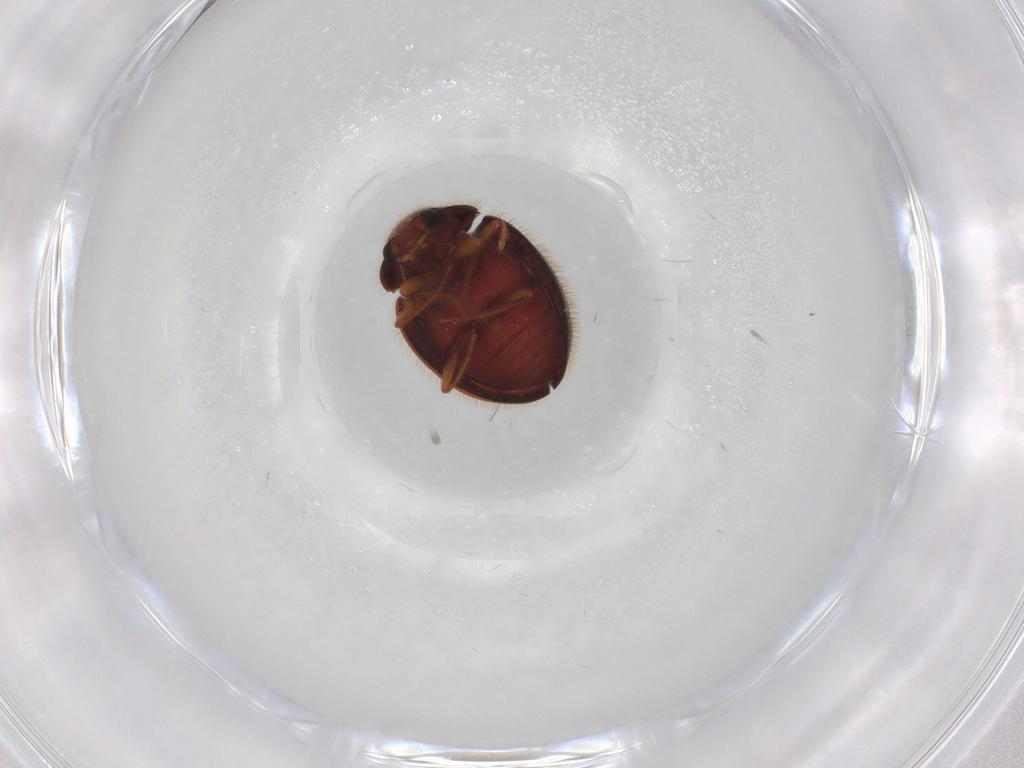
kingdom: Animalia
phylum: Arthropoda
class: Insecta
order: Coleoptera
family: Anamorphidae
